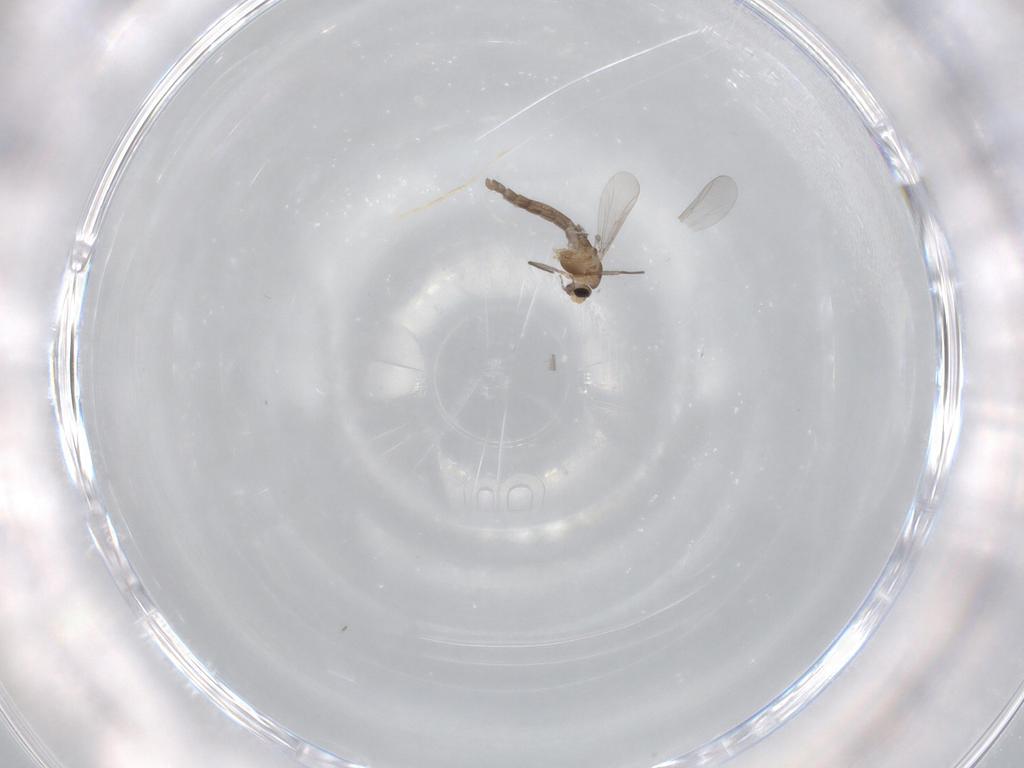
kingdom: Animalia
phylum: Arthropoda
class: Insecta
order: Diptera
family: Chironomidae
